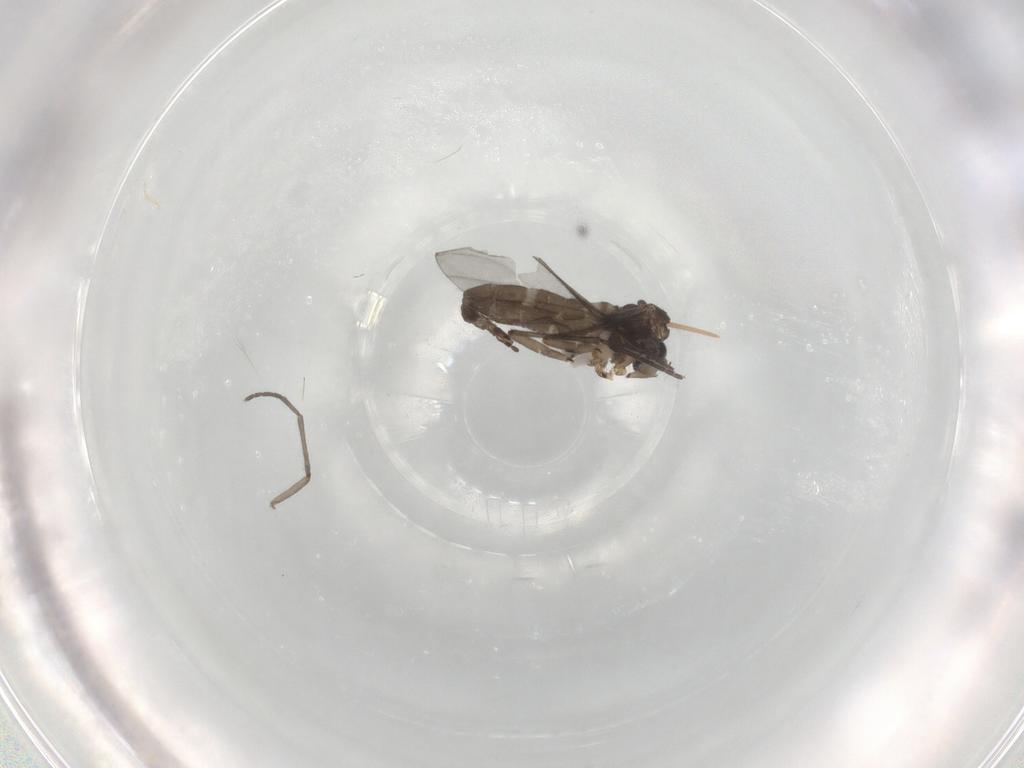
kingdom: Animalia
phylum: Arthropoda
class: Insecta
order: Diptera
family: Sciaridae
